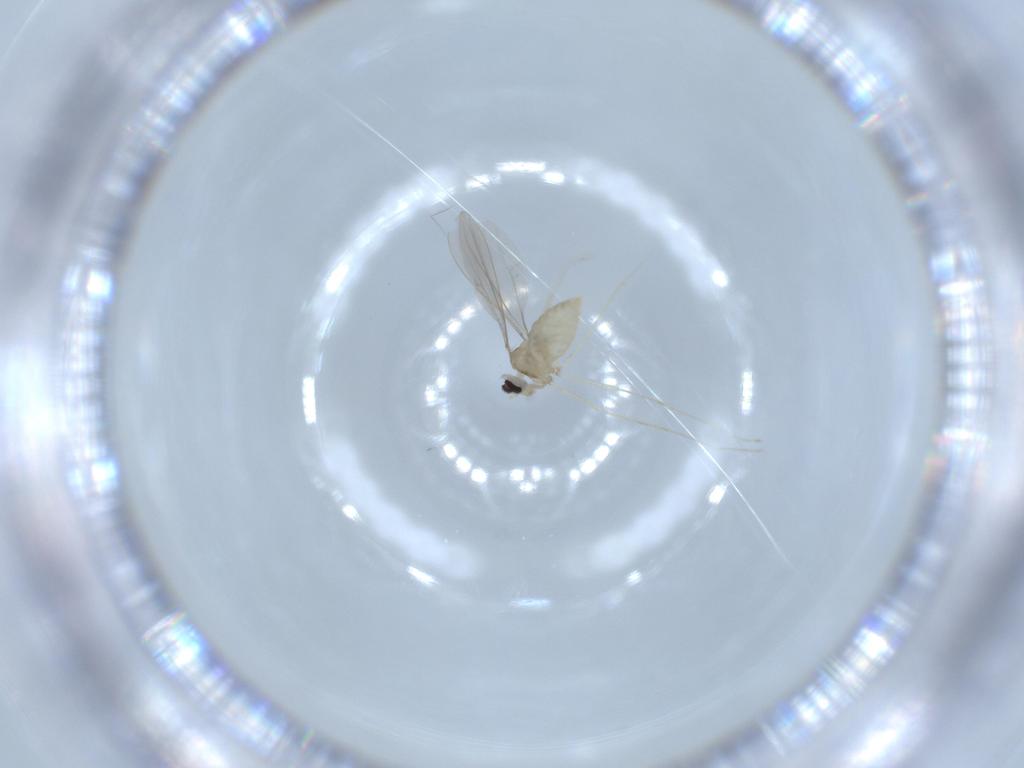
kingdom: Animalia
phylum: Arthropoda
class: Insecta
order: Diptera
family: Cecidomyiidae
